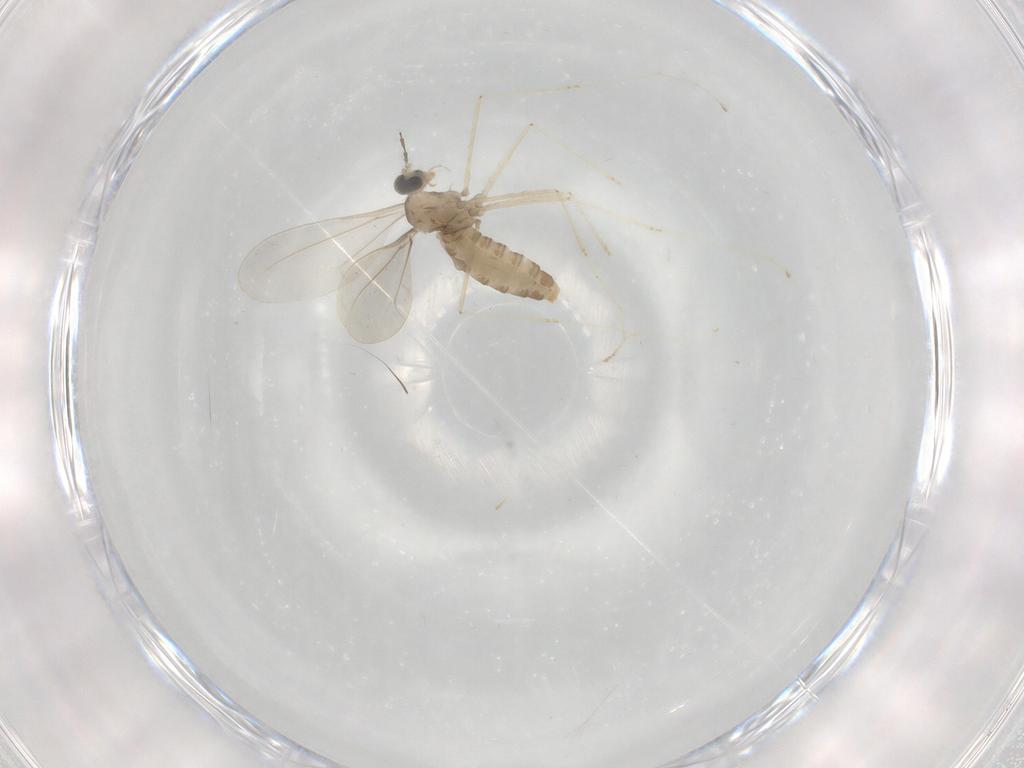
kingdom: Animalia
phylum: Arthropoda
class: Insecta
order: Diptera
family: Cecidomyiidae
